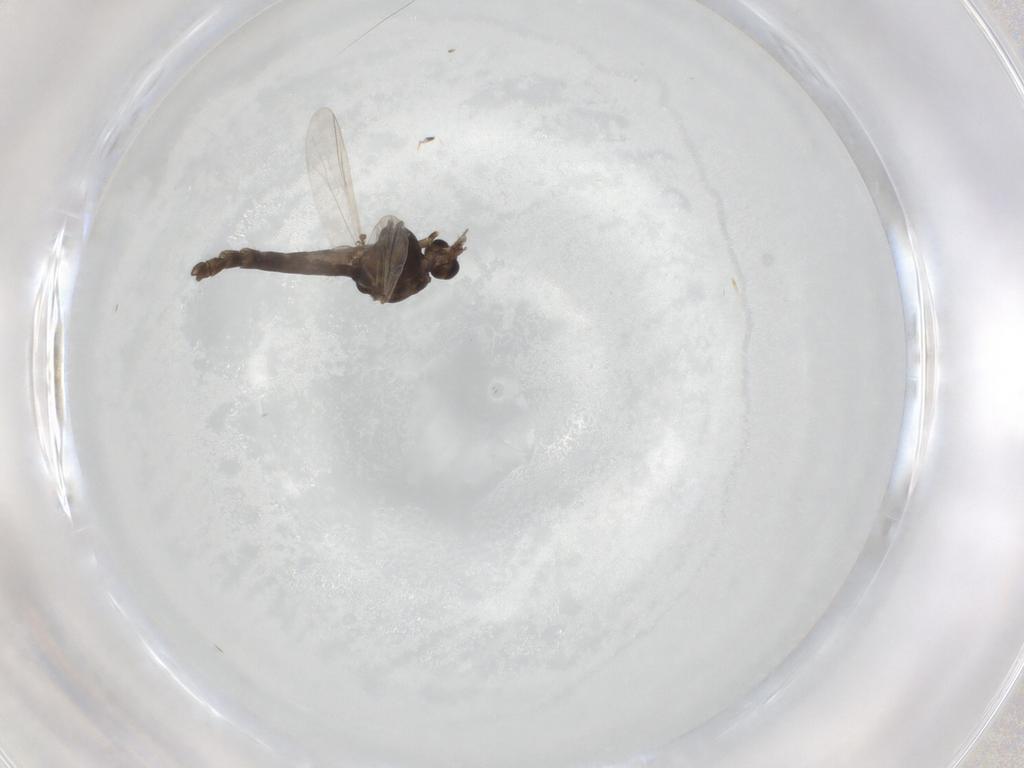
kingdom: Animalia
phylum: Arthropoda
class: Insecta
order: Diptera
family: Chironomidae
